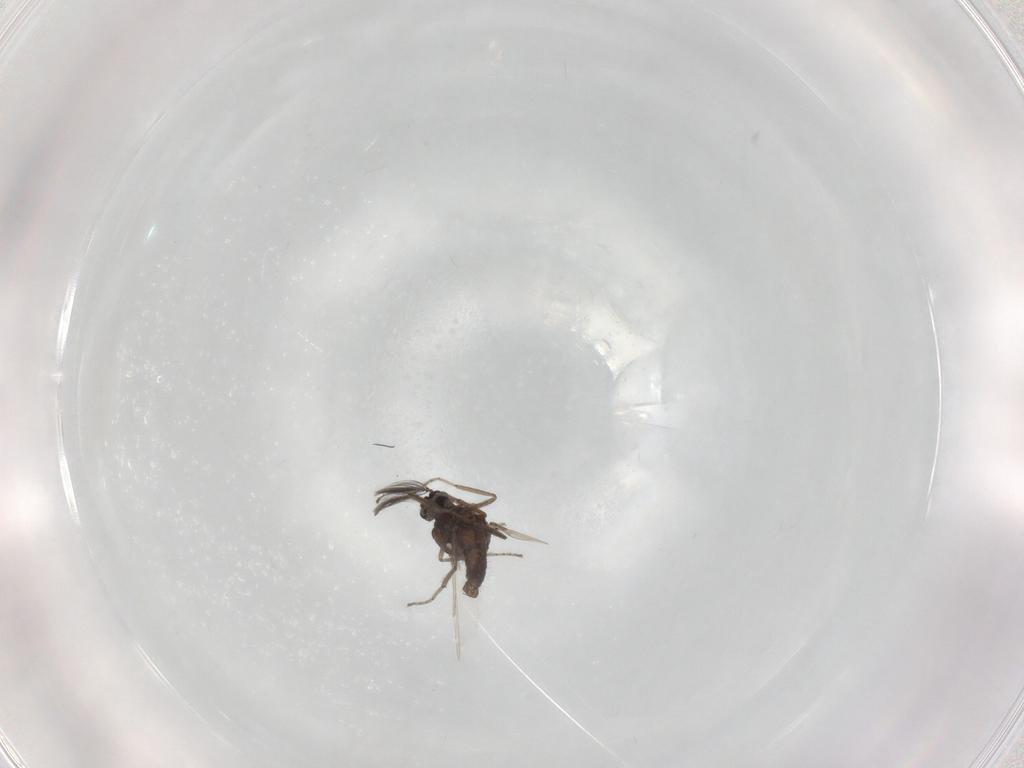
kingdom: Animalia
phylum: Arthropoda
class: Insecta
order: Diptera
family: Ceratopogonidae
